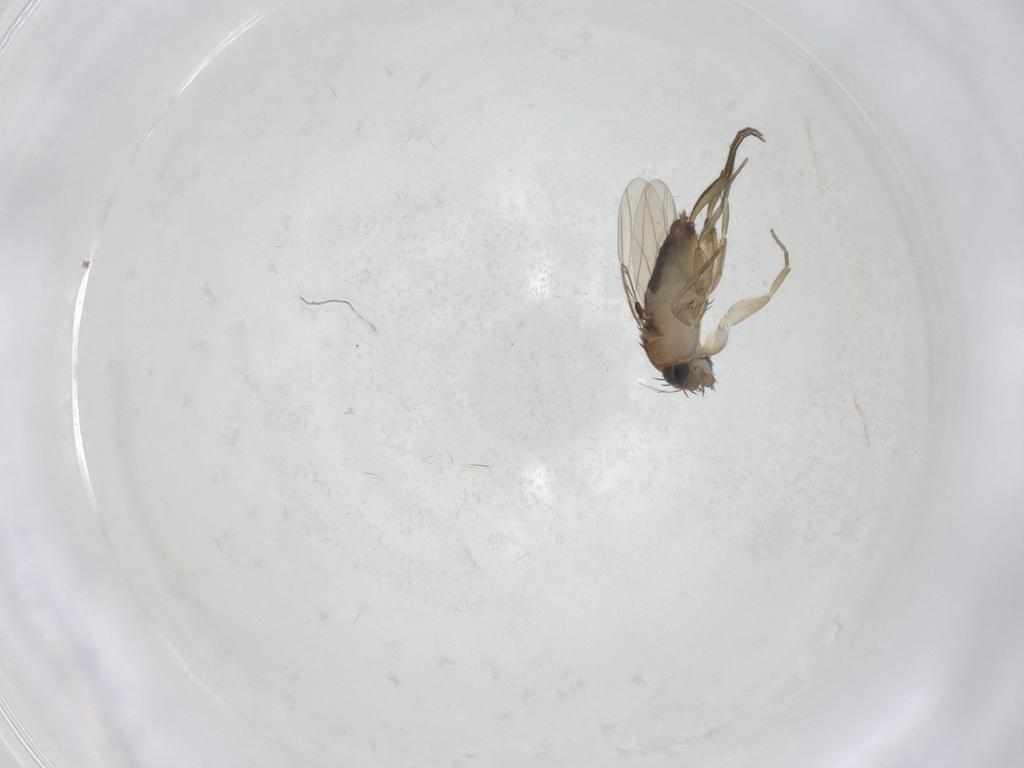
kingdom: Animalia
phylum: Arthropoda
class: Insecta
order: Diptera
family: Phoridae
